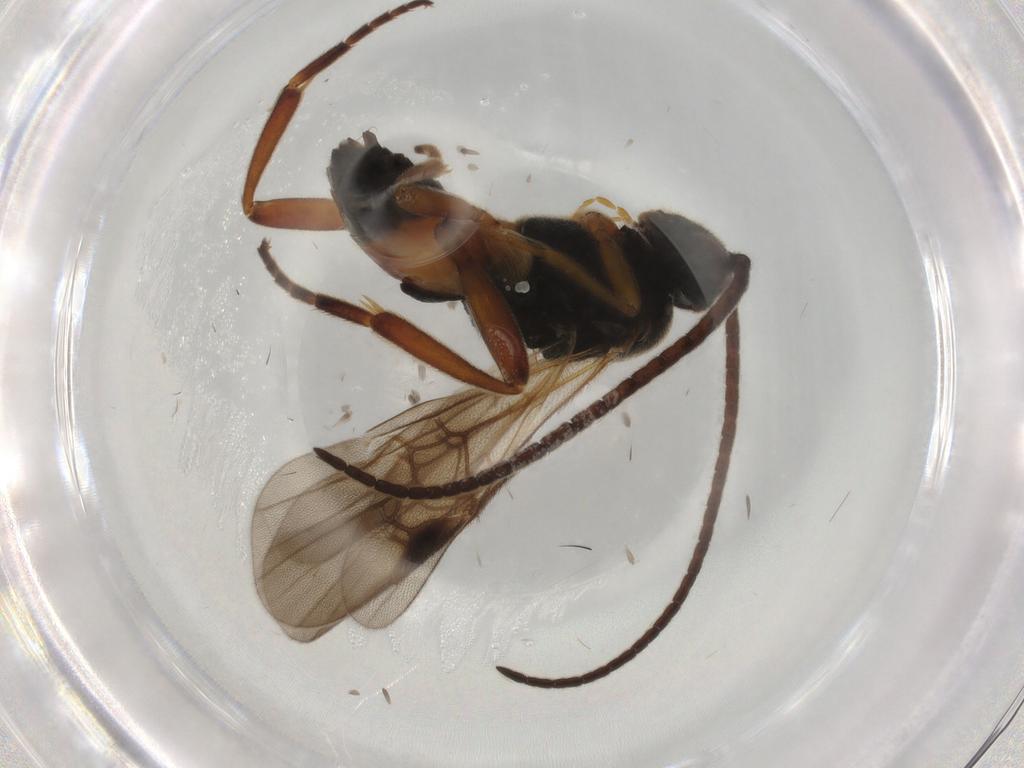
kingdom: Animalia
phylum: Arthropoda
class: Insecta
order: Hymenoptera
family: Braconidae
